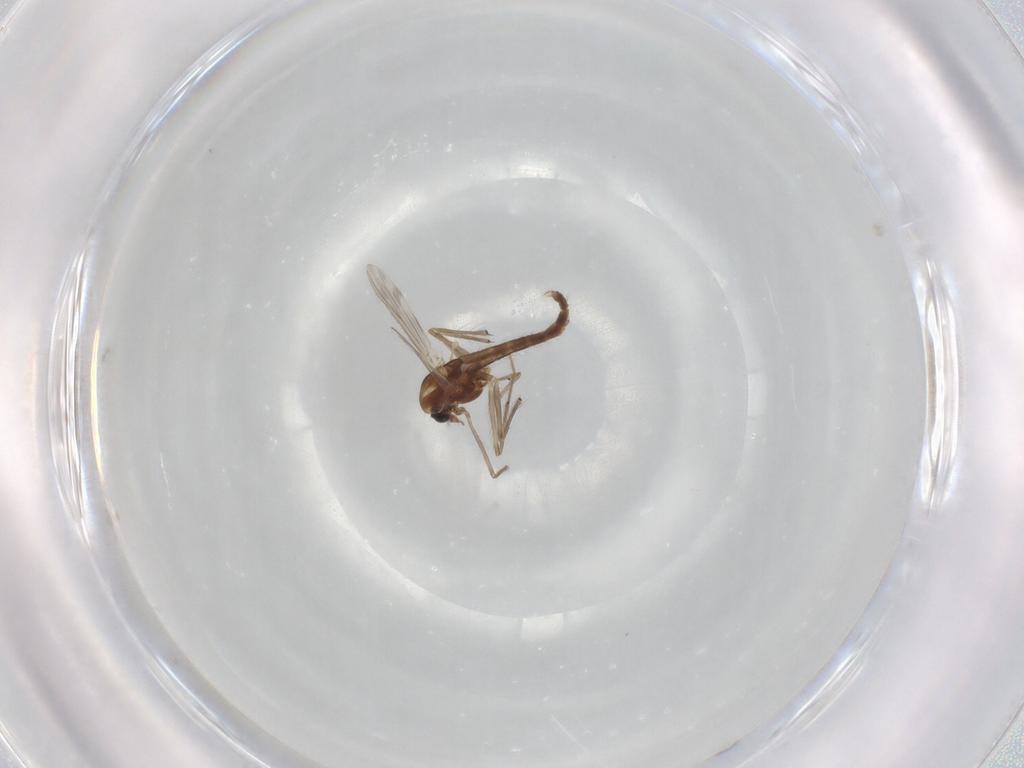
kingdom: Animalia
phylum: Arthropoda
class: Insecta
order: Diptera
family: Chironomidae
